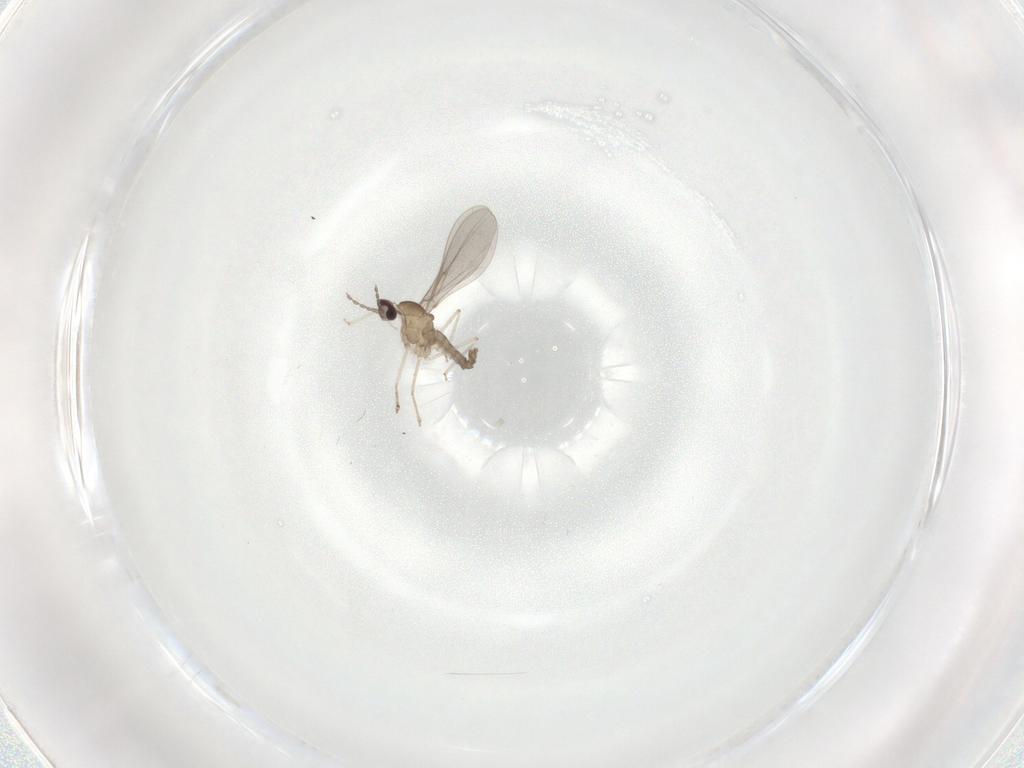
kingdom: Animalia
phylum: Arthropoda
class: Insecta
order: Diptera
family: Cecidomyiidae
